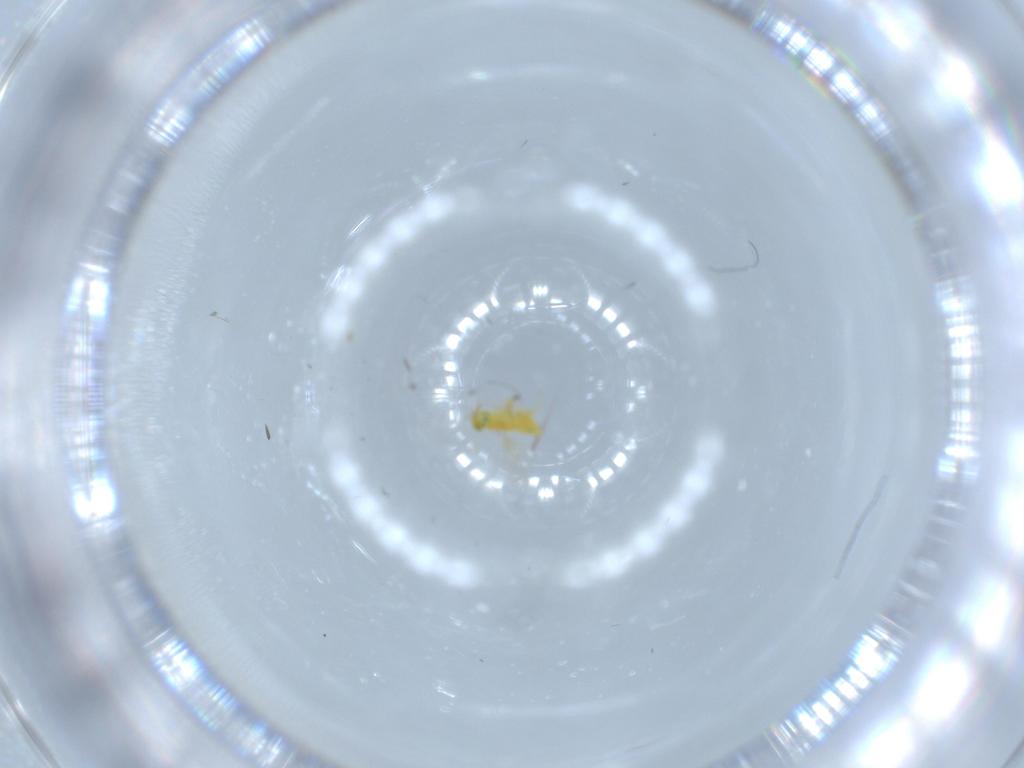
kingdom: Animalia
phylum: Arthropoda
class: Insecta
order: Hymenoptera
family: Aphelinidae
